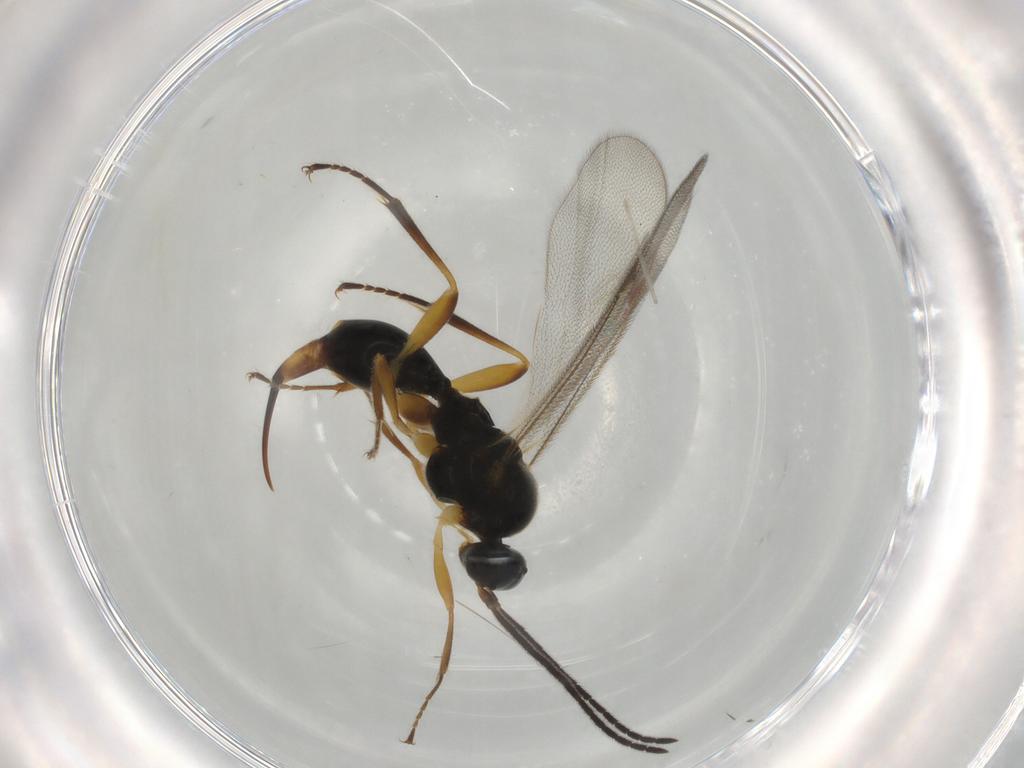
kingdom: Animalia
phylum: Arthropoda
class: Insecta
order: Hymenoptera
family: Proctotrupidae
